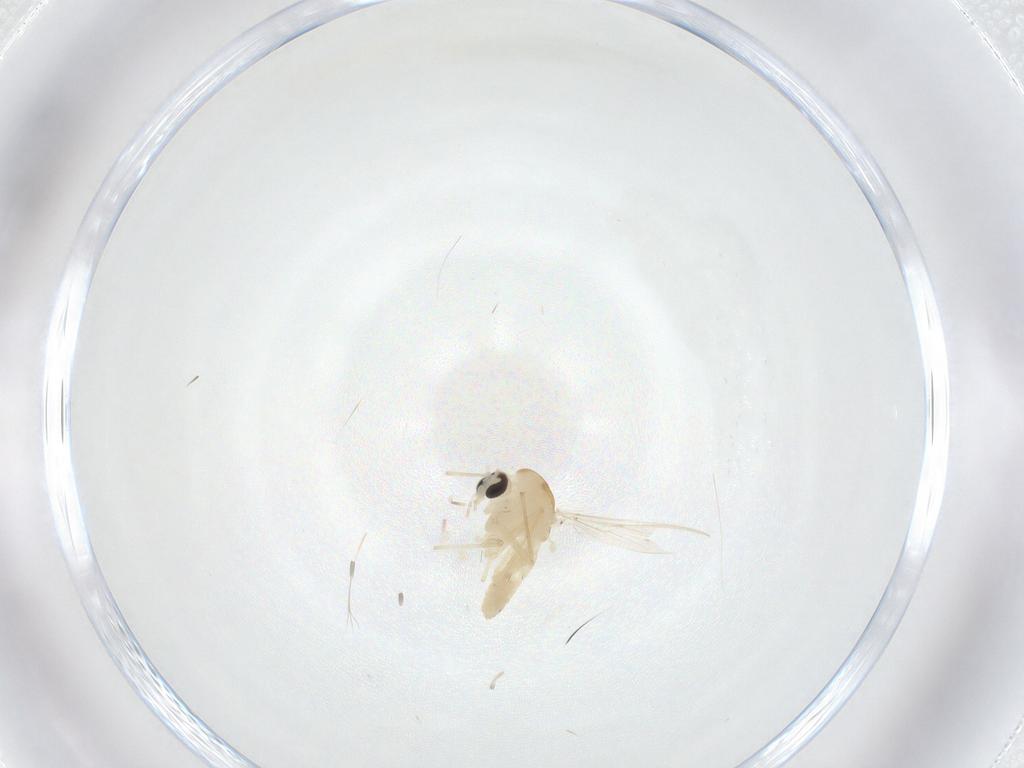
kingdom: Animalia
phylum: Arthropoda
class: Insecta
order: Diptera
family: Chironomidae
